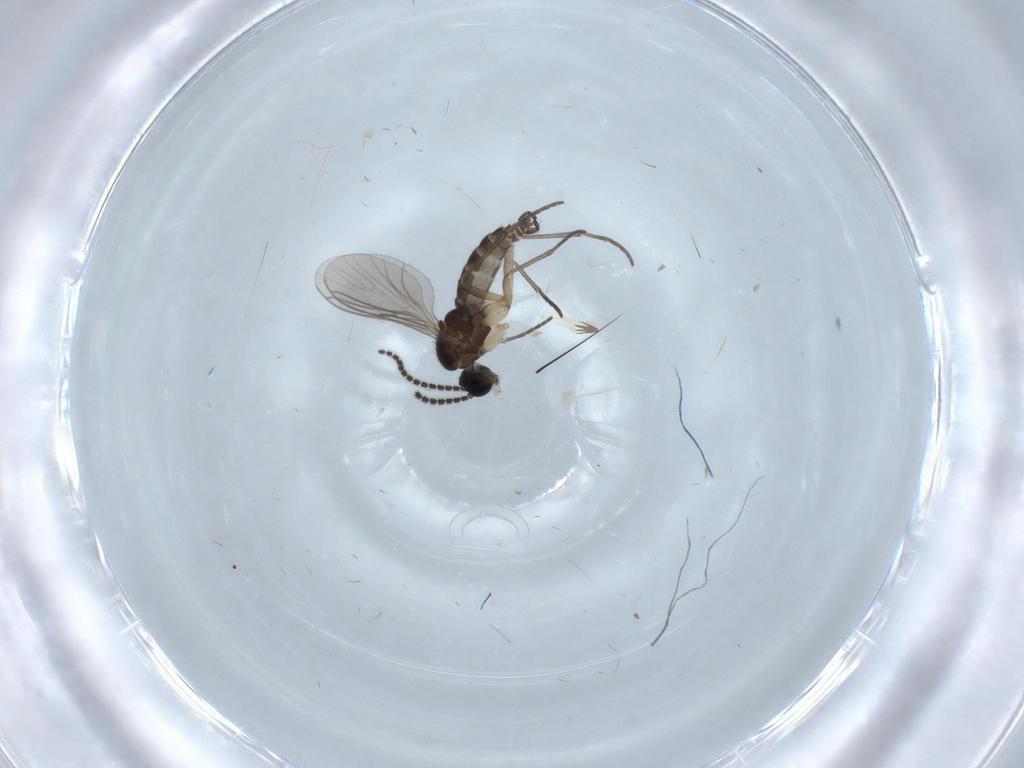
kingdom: Animalia
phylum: Arthropoda
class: Insecta
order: Diptera
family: Sciaridae
